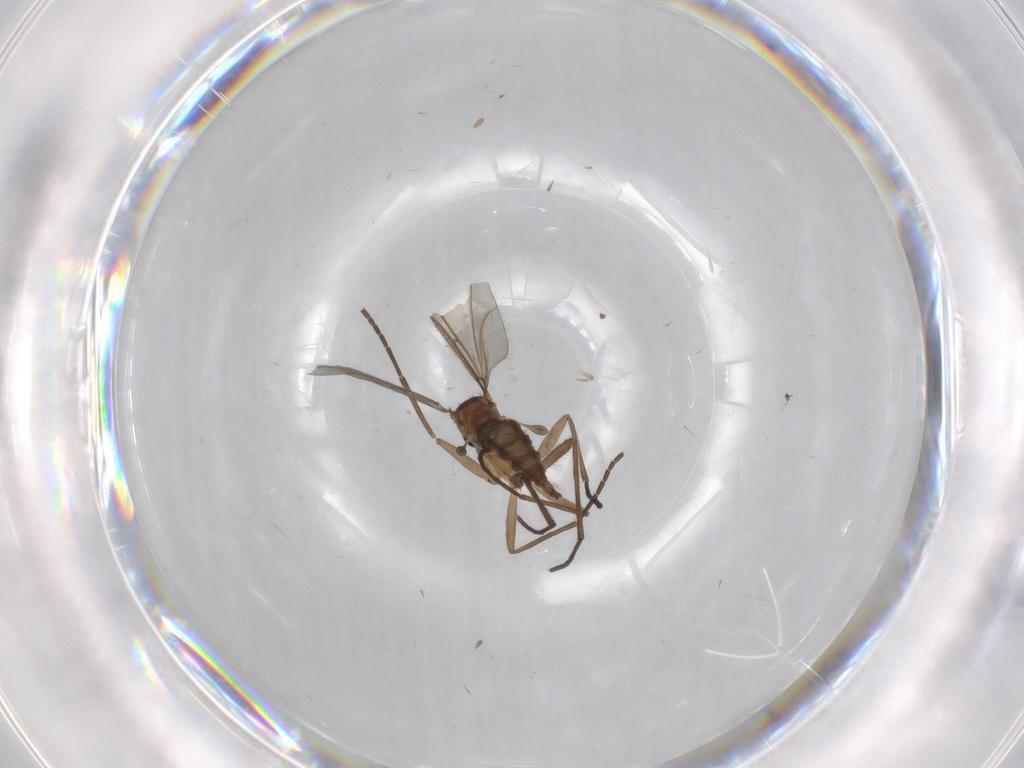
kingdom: Animalia
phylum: Arthropoda
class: Insecta
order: Diptera
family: Sciaridae
